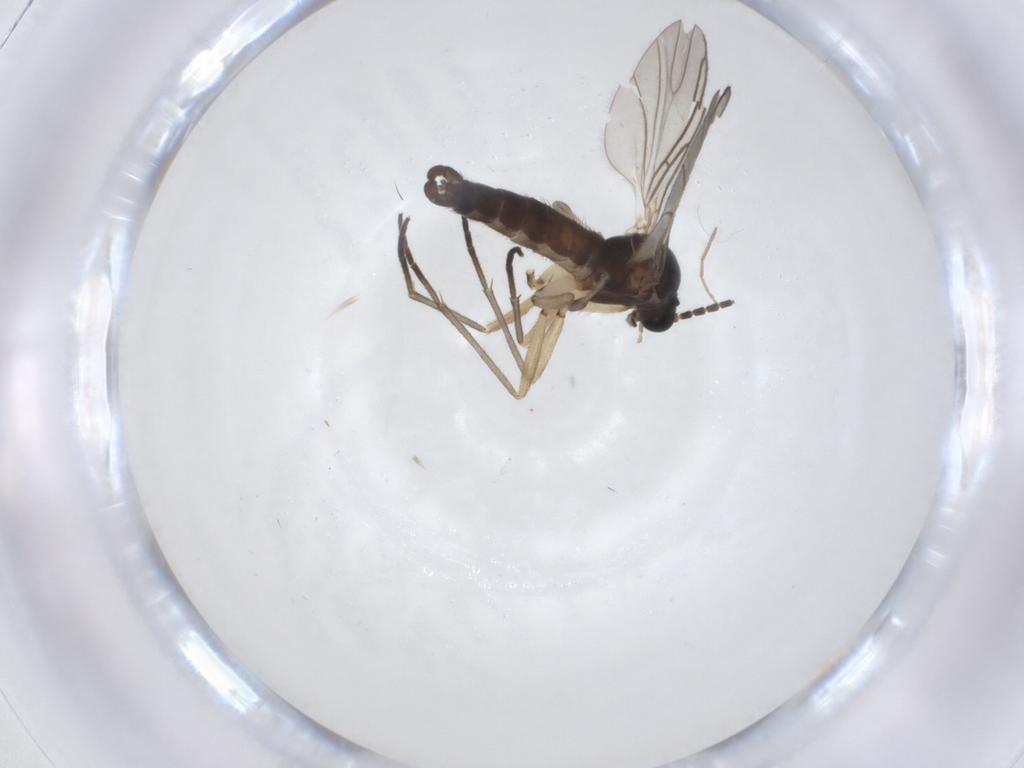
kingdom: Animalia
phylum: Arthropoda
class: Insecta
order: Diptera
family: Sciaridae
